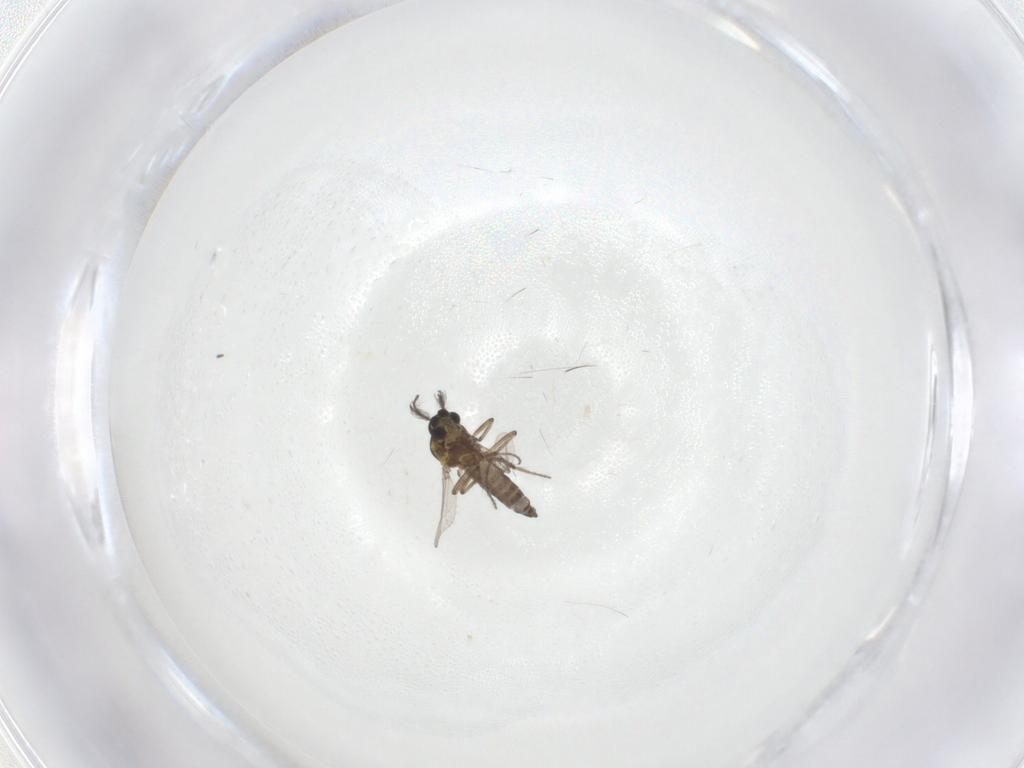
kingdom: Animalia
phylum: Arthropoda
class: Insecta
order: Diptera
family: Ceratopogonidae
